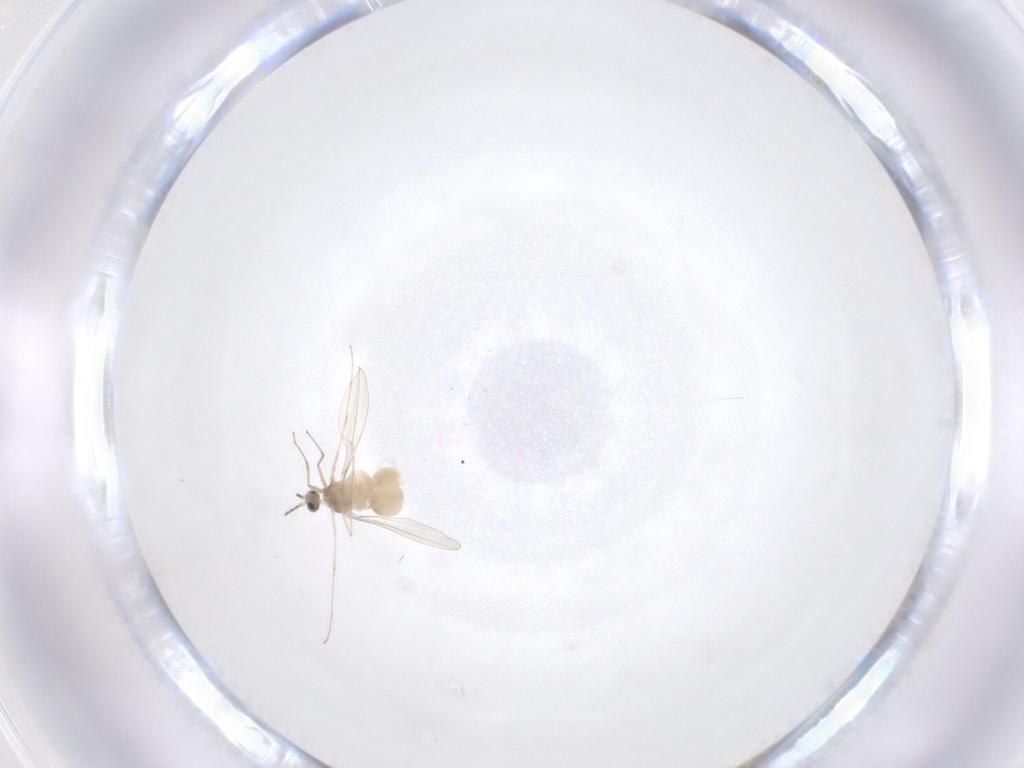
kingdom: Animalia
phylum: Arthropoda
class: Insecta
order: Diptera
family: Cecidomyiidae
